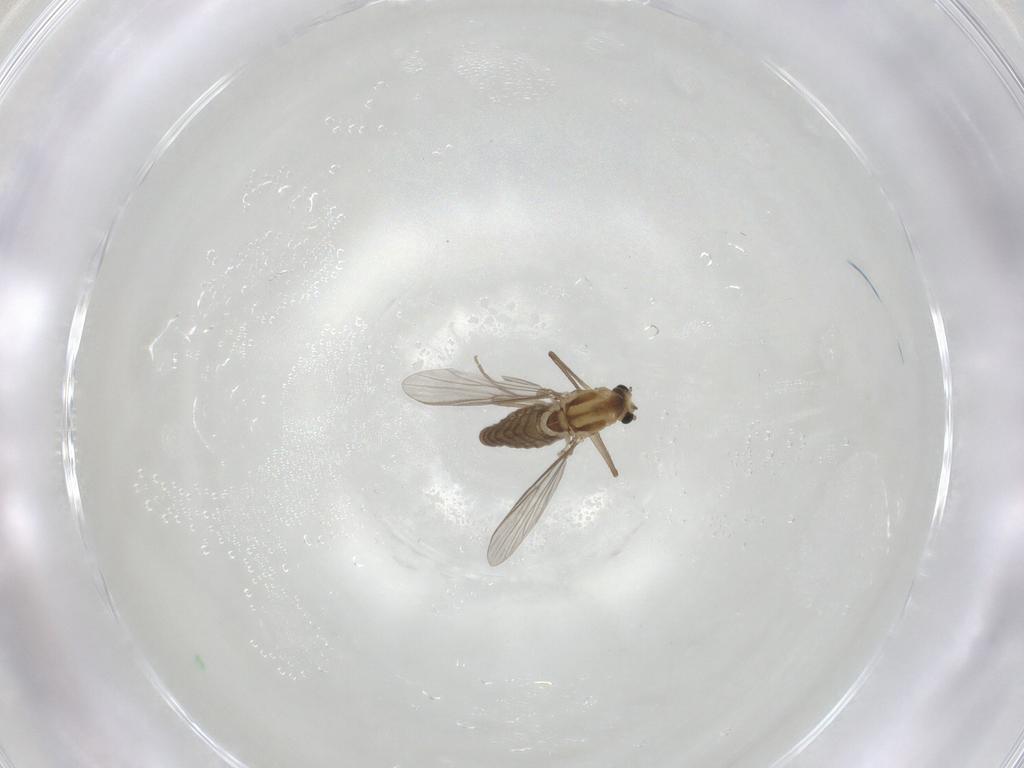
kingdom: Animalia
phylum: Arthropoda
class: Insecta
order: Diptera
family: Chironomidae
